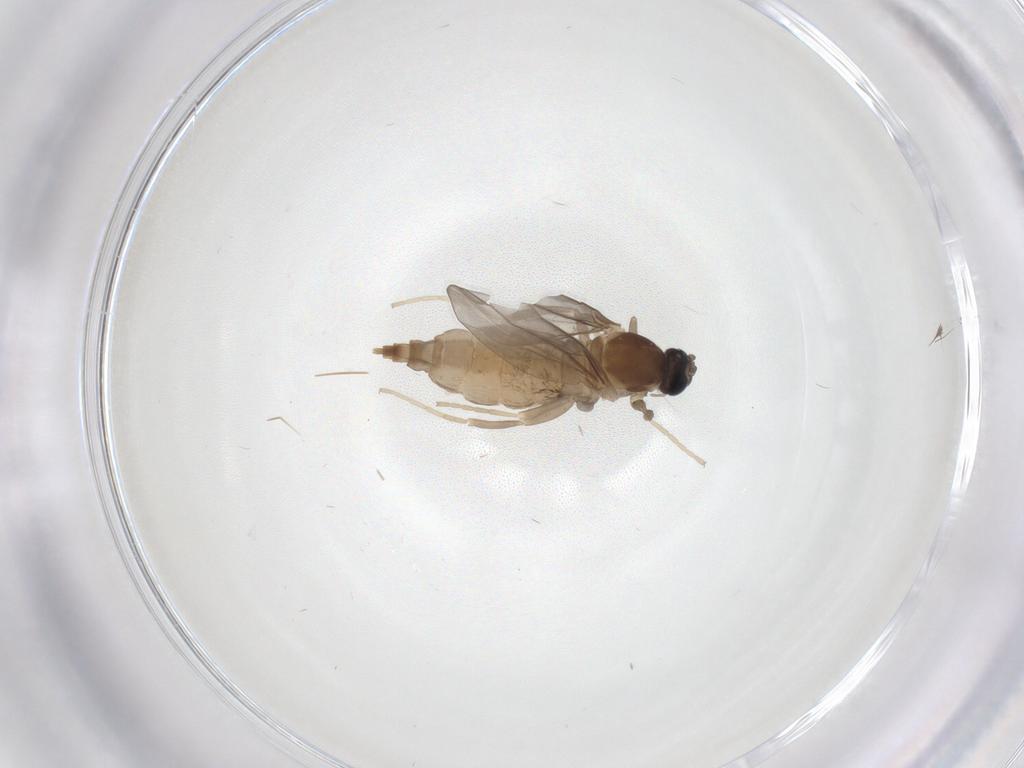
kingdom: Animalia
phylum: Arthropoda
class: Insecta
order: Diptera
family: Cecidomyiidae
